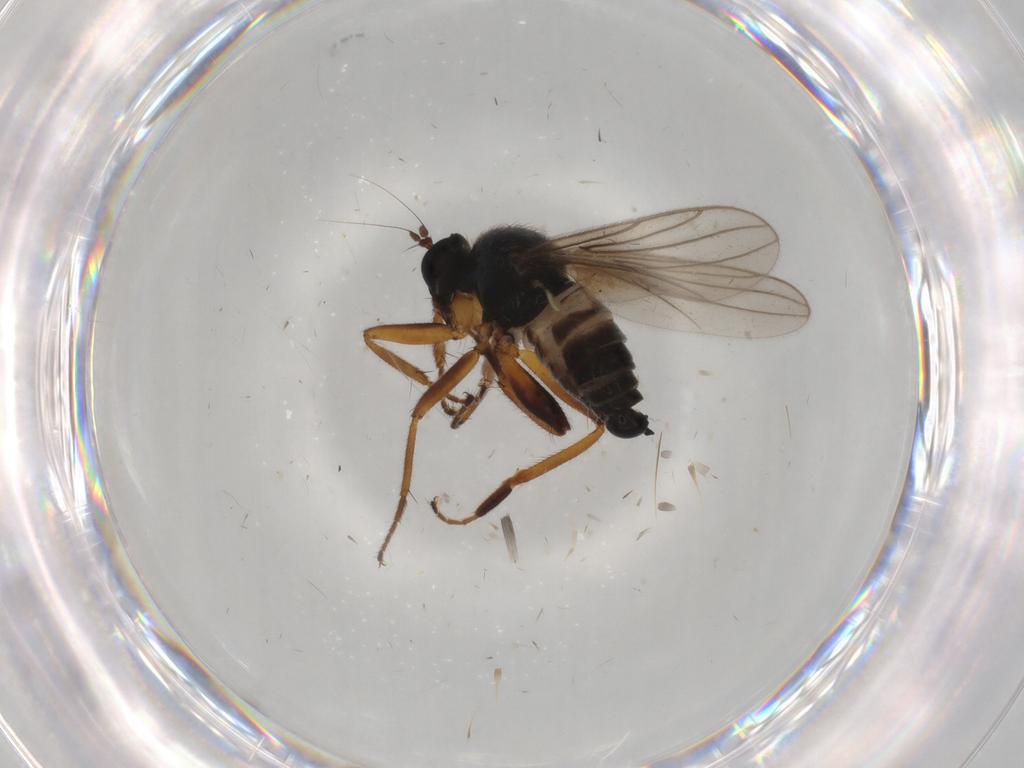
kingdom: Animalia
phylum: Arthropoda
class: Insecta
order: Diptera
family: Hybotidae
